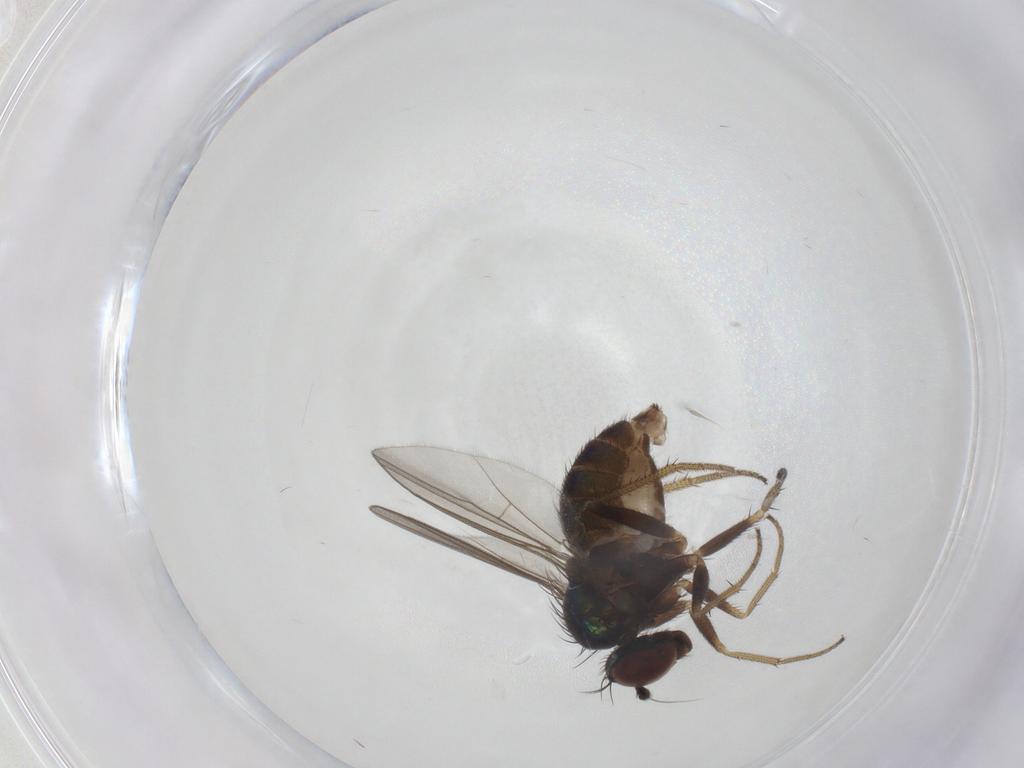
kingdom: Animalia
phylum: Arthropoda
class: Insecta
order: Diptera
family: Dolichopodidae
